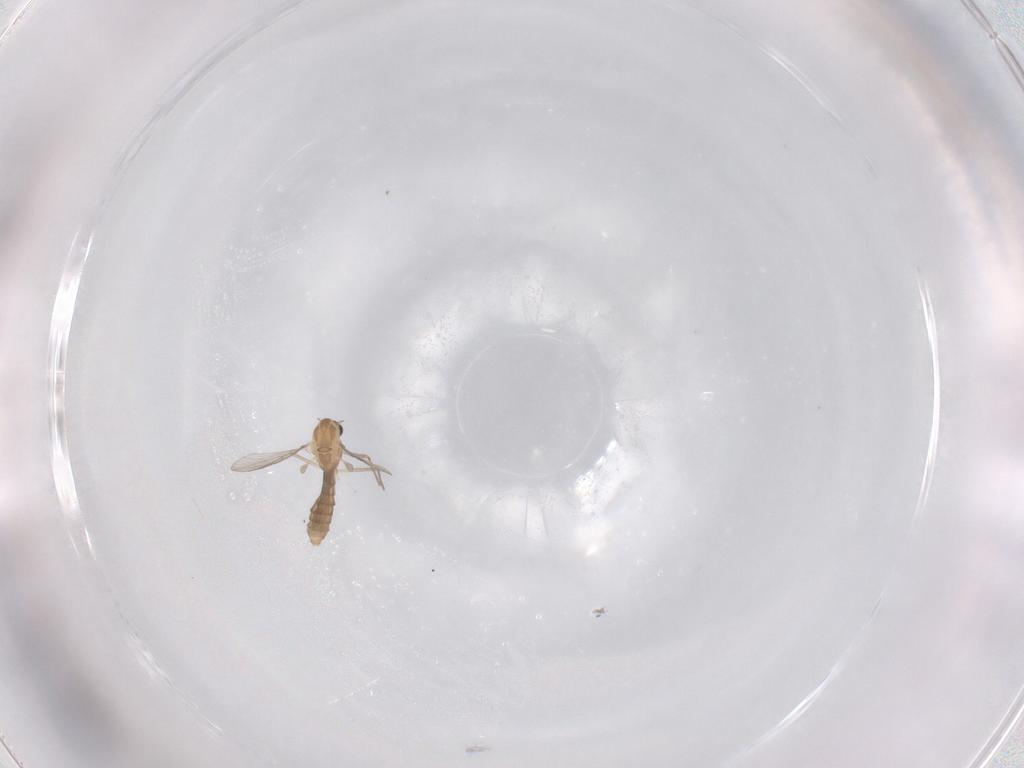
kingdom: Animalia
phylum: Arthropoda
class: Insecta
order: Diptera
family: Chironomidae
